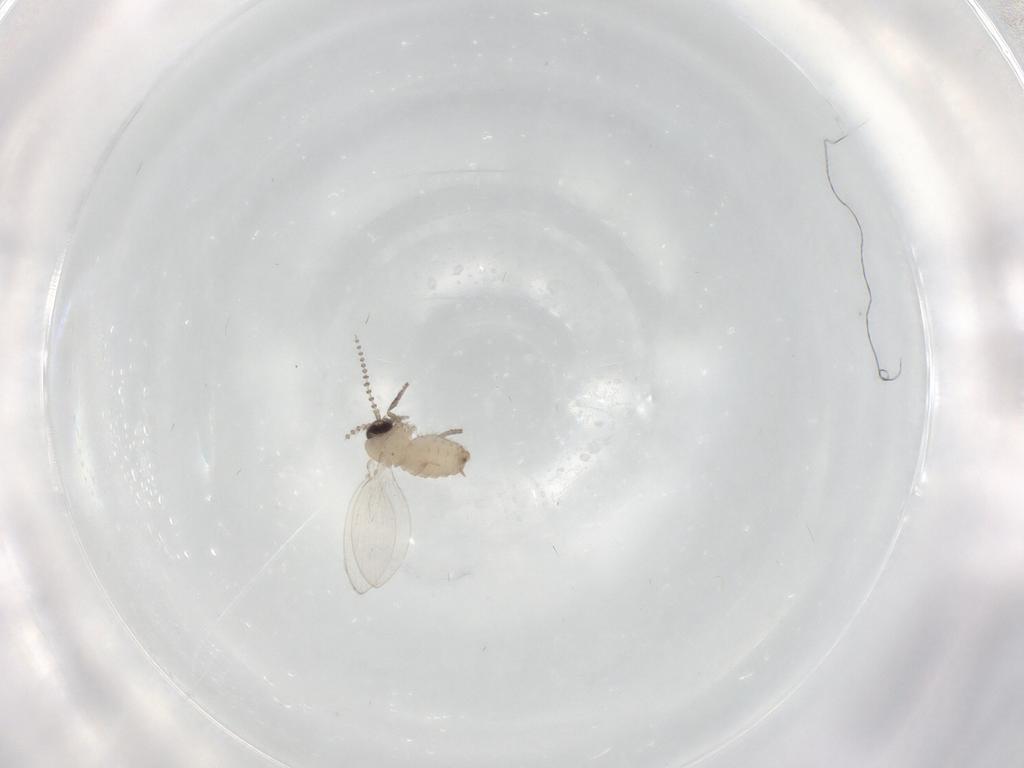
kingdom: Animalia
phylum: Arthropoda
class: Insecta
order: Diptera
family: Psychodidae
